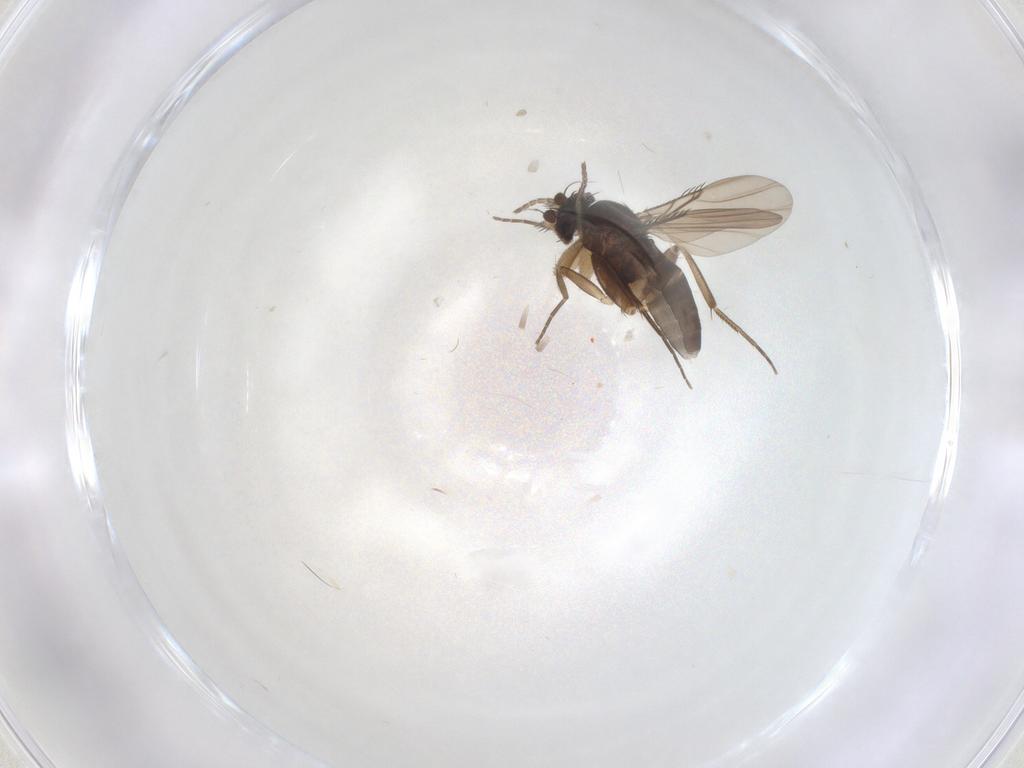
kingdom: Animalia
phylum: Arthropoda
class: Insecta
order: Diptera
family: Phoridae
